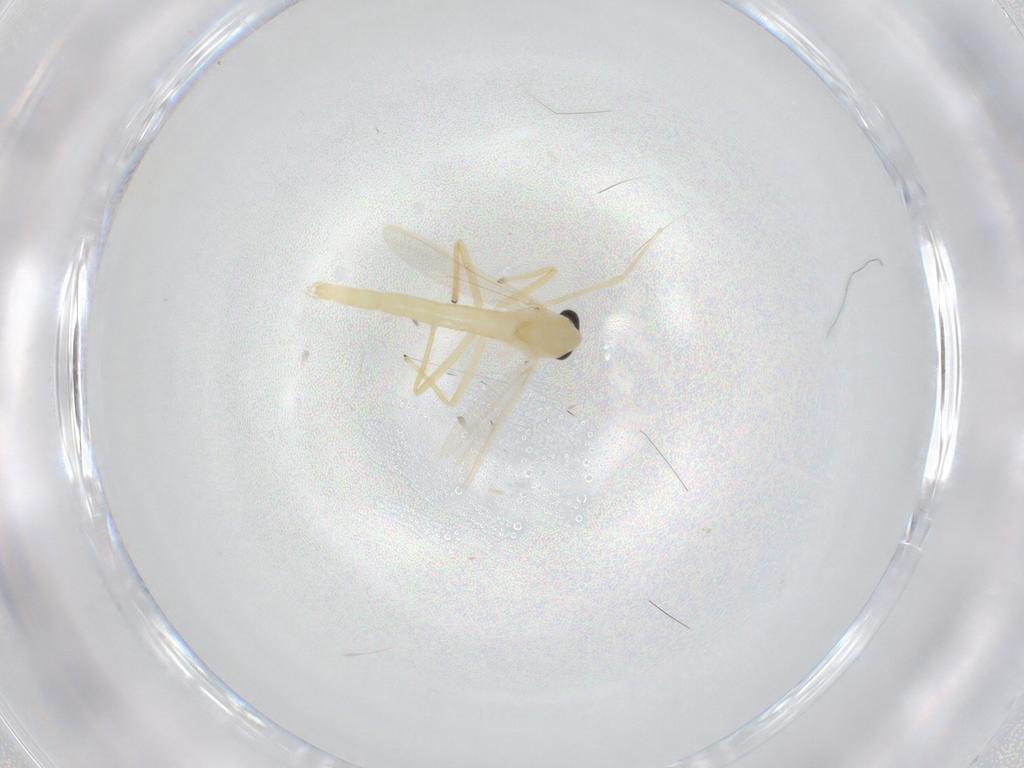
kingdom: Animalia
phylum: Arthropoda
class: Insecta
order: Diptera
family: Chironomidae
